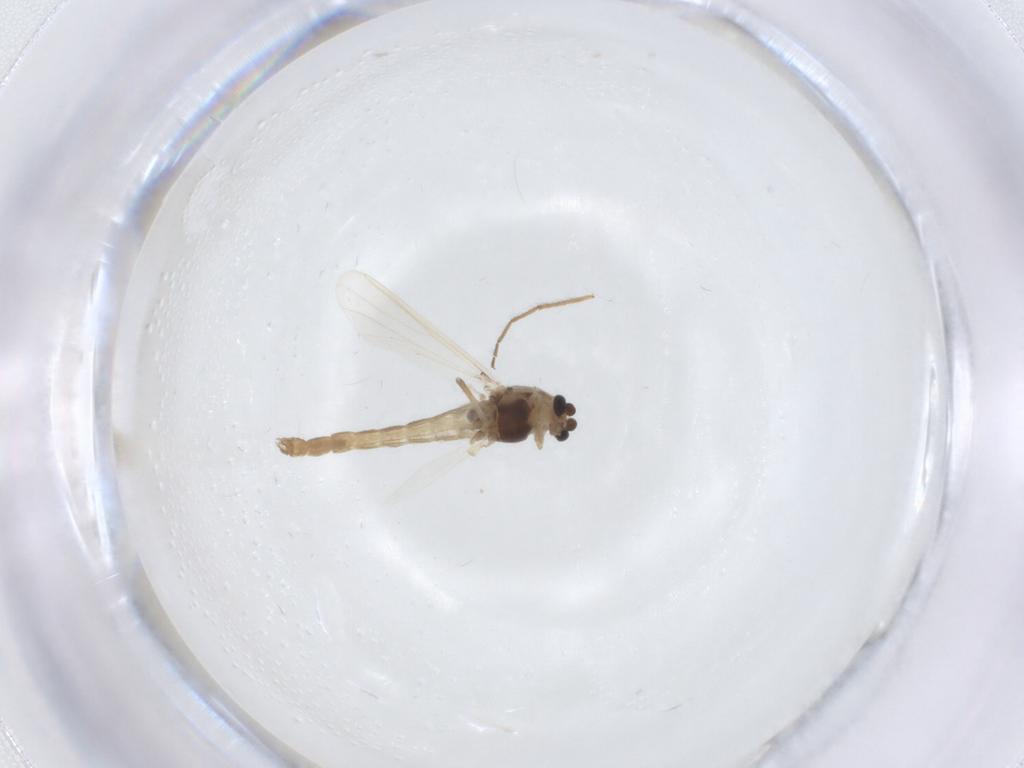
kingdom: Animalia
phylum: Arthropoda
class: Insecta
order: Diptera
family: Chironomidae
